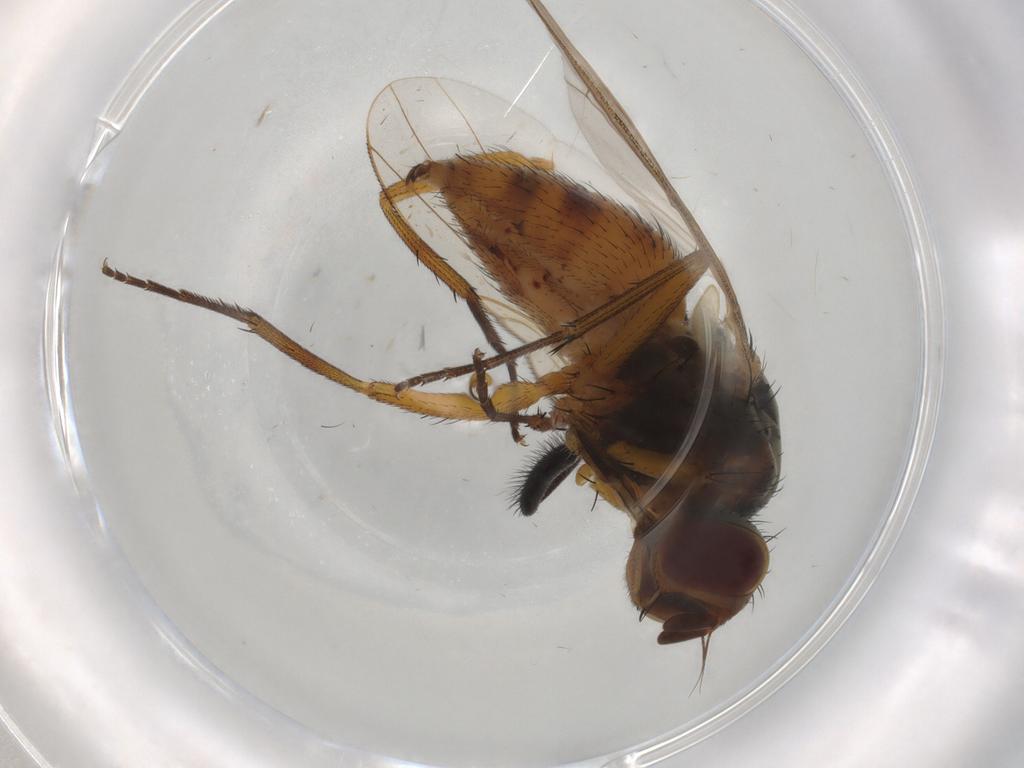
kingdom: Animalia
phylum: Arthropoda
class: Insecta
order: Diptera
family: Muscidae
